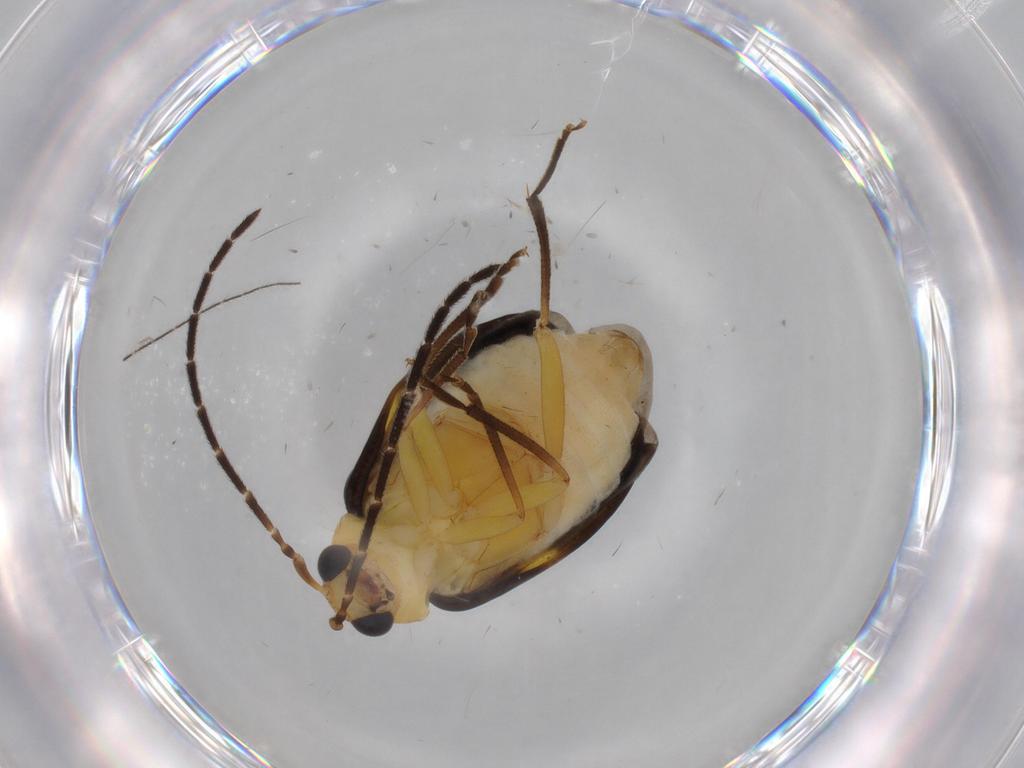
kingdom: Animalia
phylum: Arthropoda
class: Insecta
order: Coleoptera
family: Chrysomelidae
